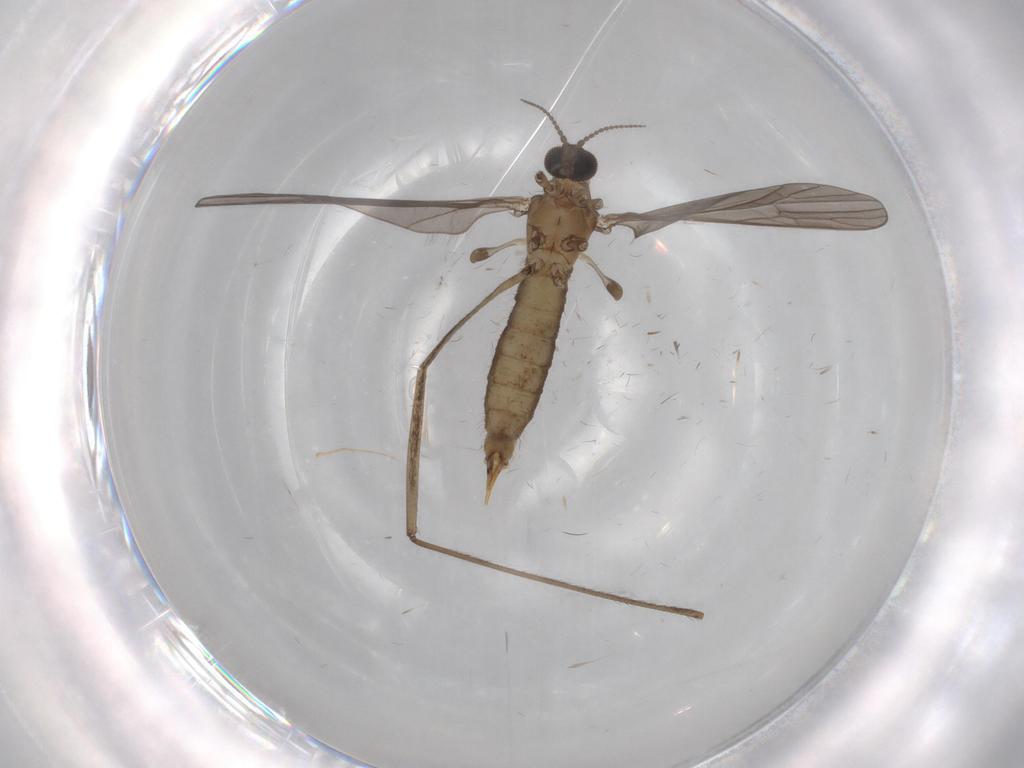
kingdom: Animalia
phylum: Arthropoda
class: Insecta
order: Diptera
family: Limoniidae
